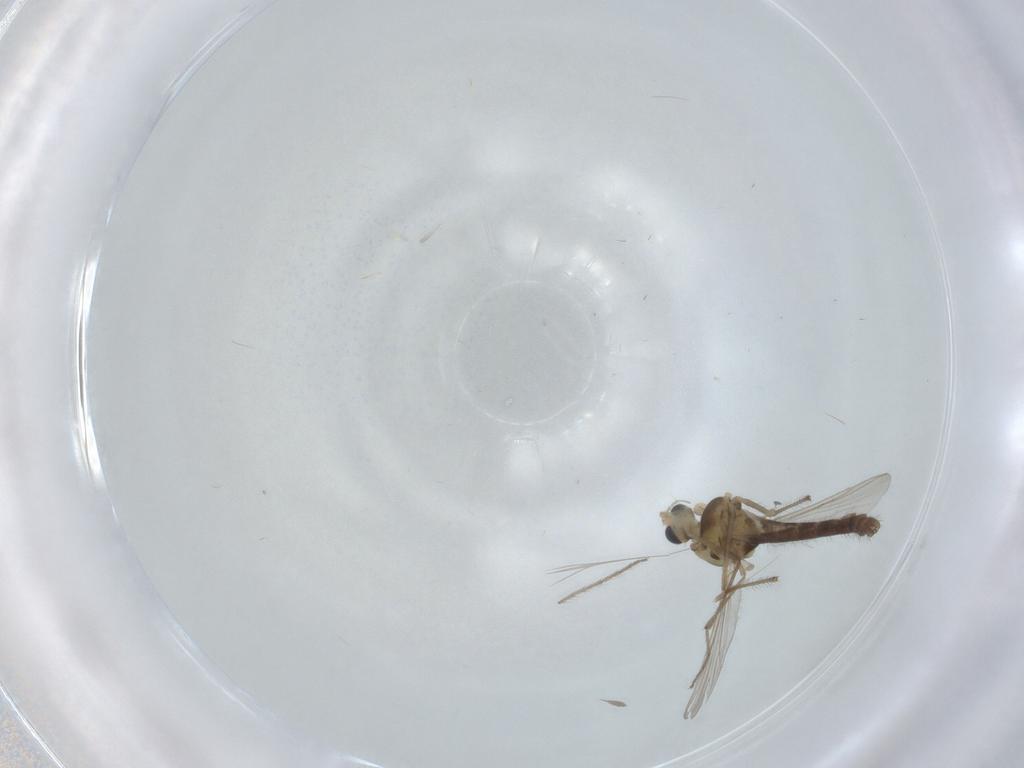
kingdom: Animalia
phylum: Arthropoda
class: Insecta
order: Diptera
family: Chironomidae
